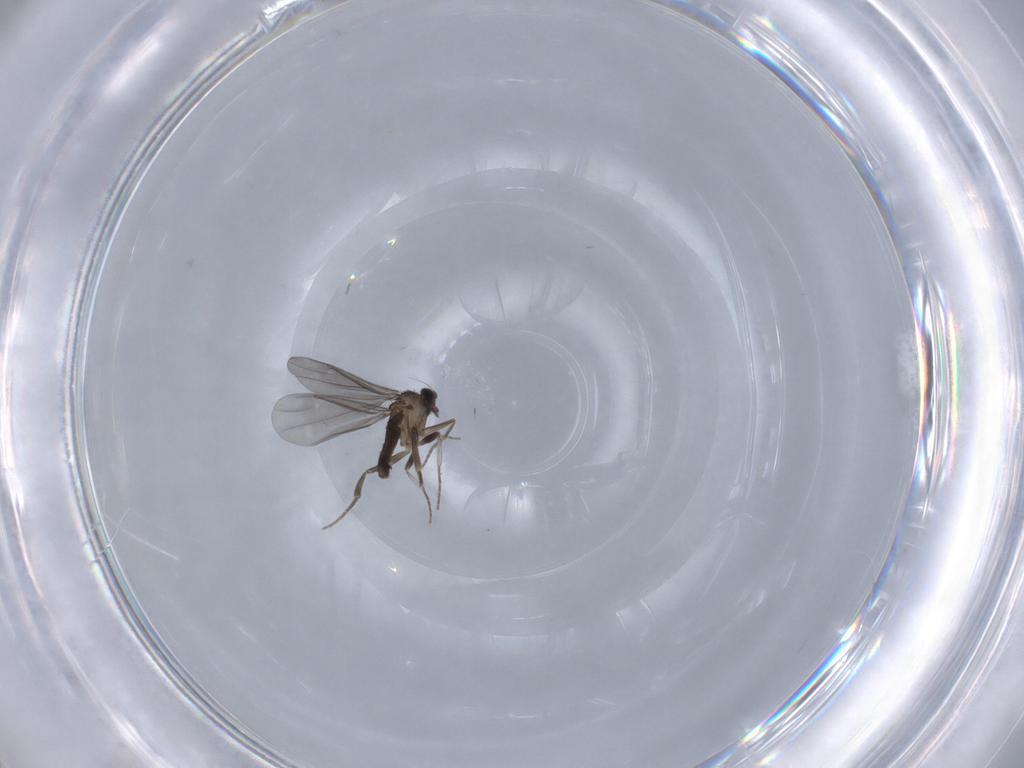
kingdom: Animalia
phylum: Arthropoda
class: Insecta
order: Diptera
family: Phoridae
